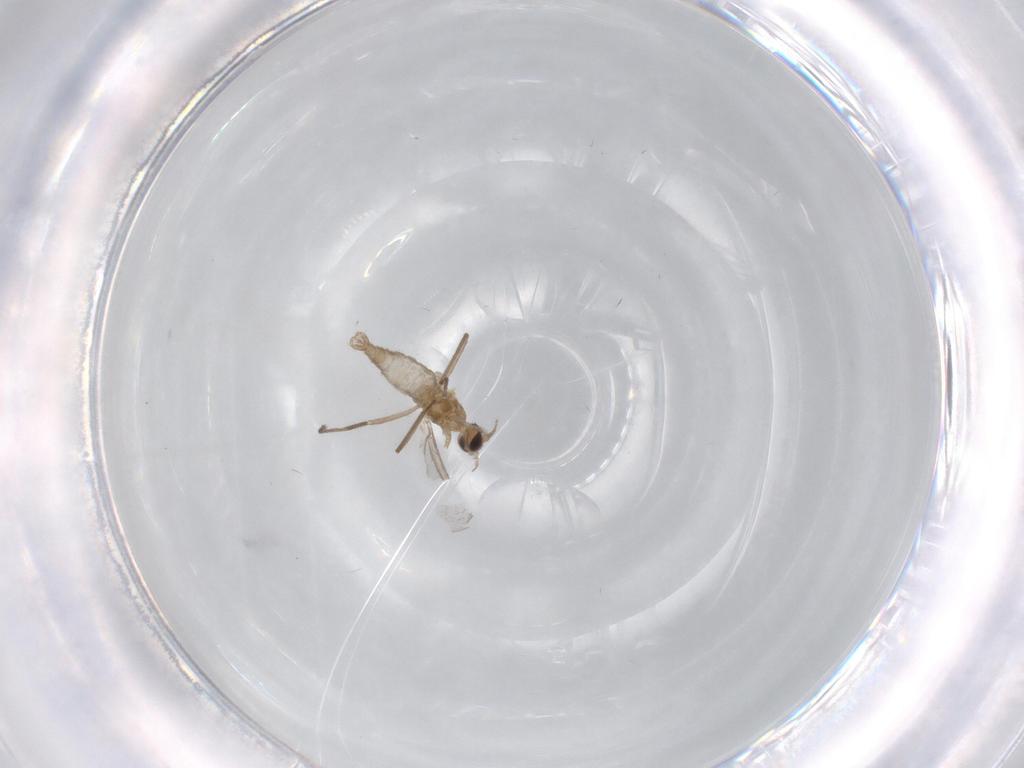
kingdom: Animalia
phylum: Arthropoda
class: Insecta
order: Diptera
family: Cecidomyiidae
